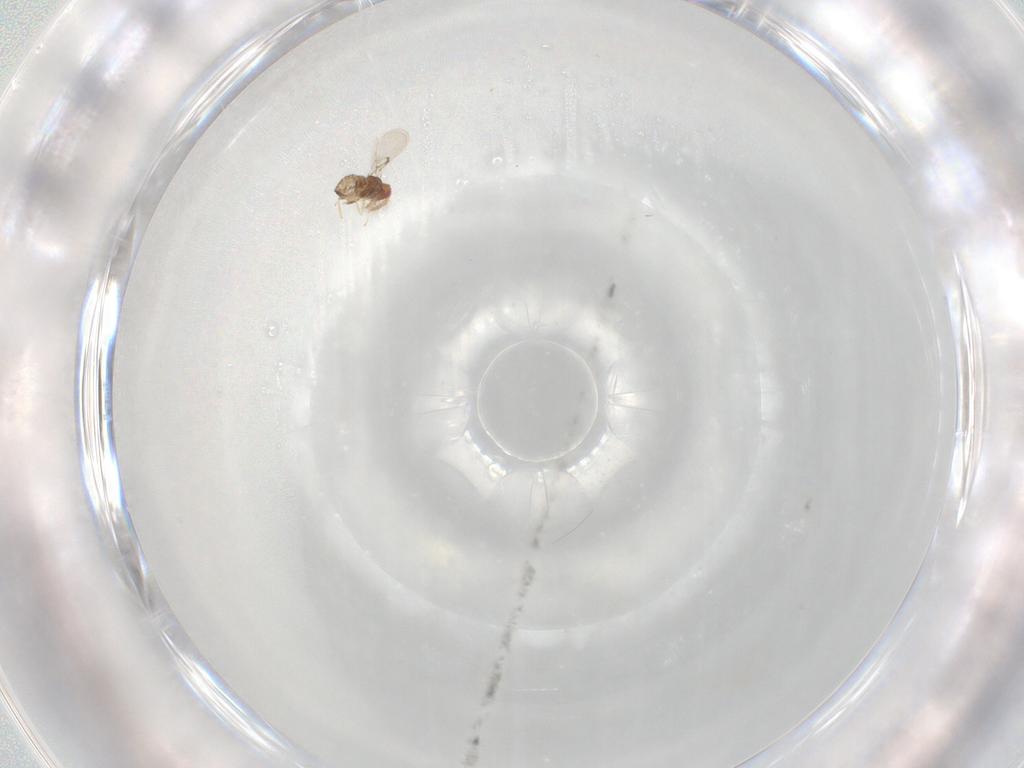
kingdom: Animalia
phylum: Arthropoda
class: Insecta
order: Hymenoptera
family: Trichogrammatidae
